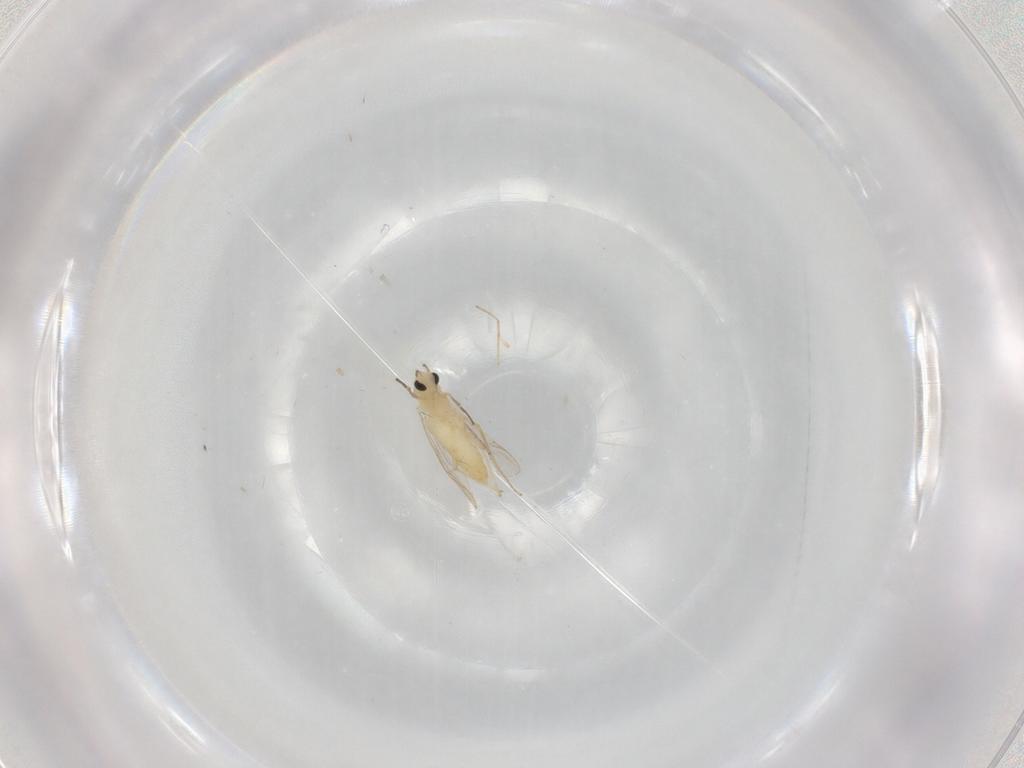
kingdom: Animalia
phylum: Arthropoda
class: Insecta
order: Diptera
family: Chironomidae
